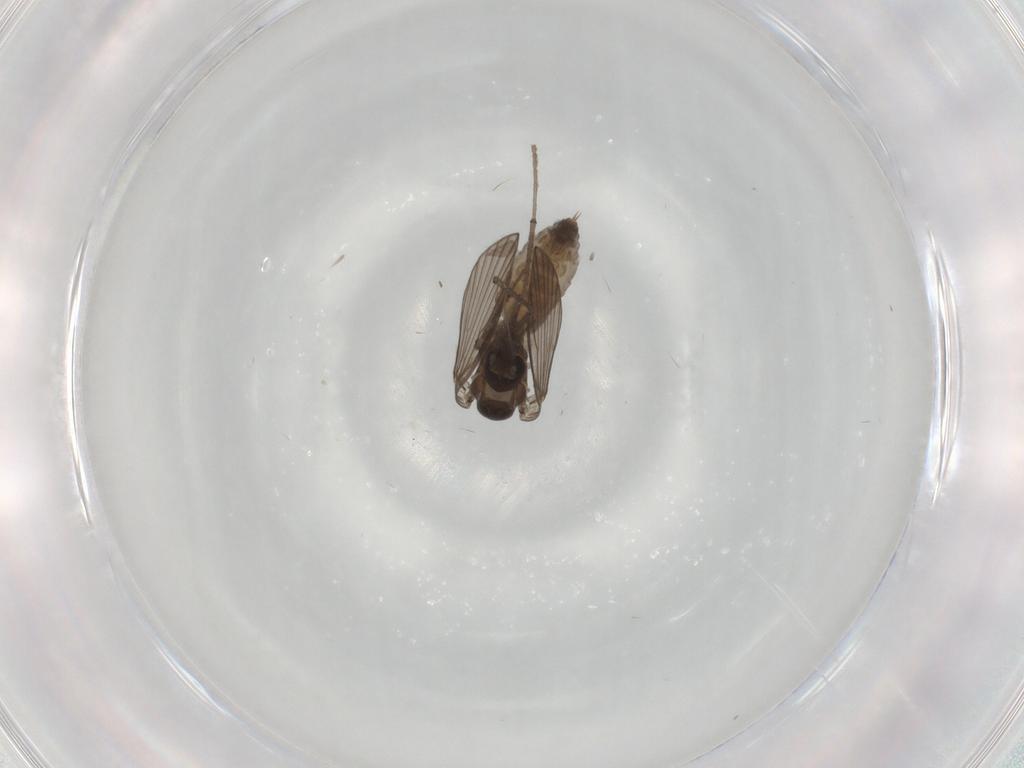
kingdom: Animalia
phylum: Arthropoda
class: Insecta
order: Diptera
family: Psychodidae
